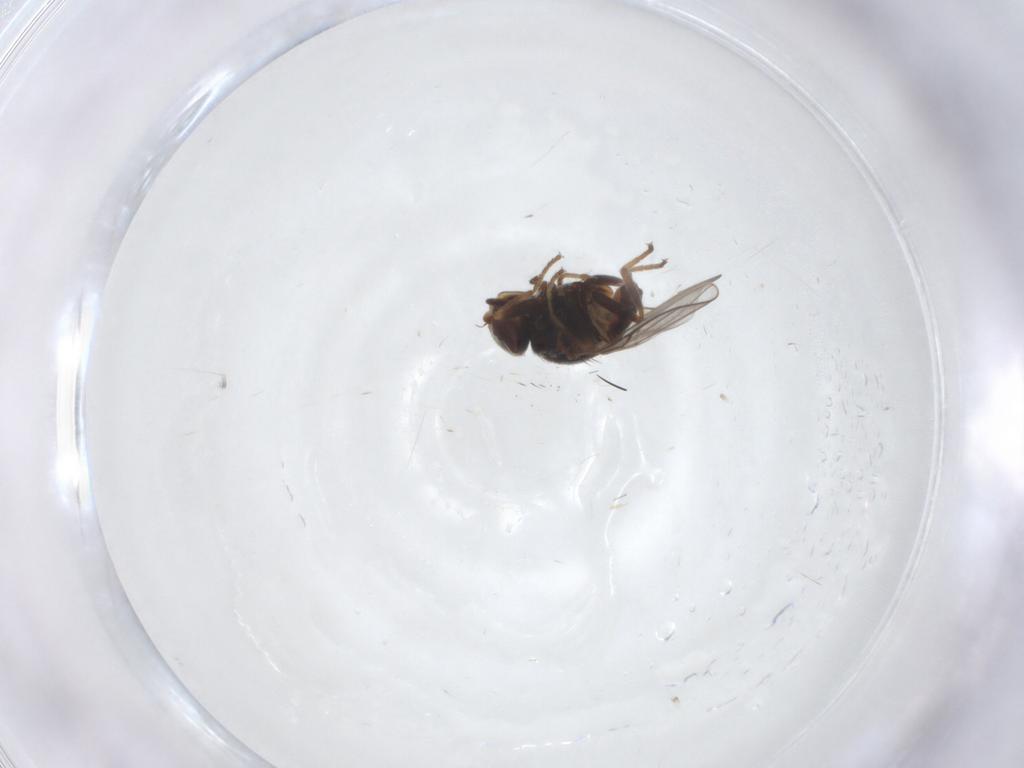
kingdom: Animalia
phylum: Arthropoda
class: Insecta
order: Diptera
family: Chloropidae
